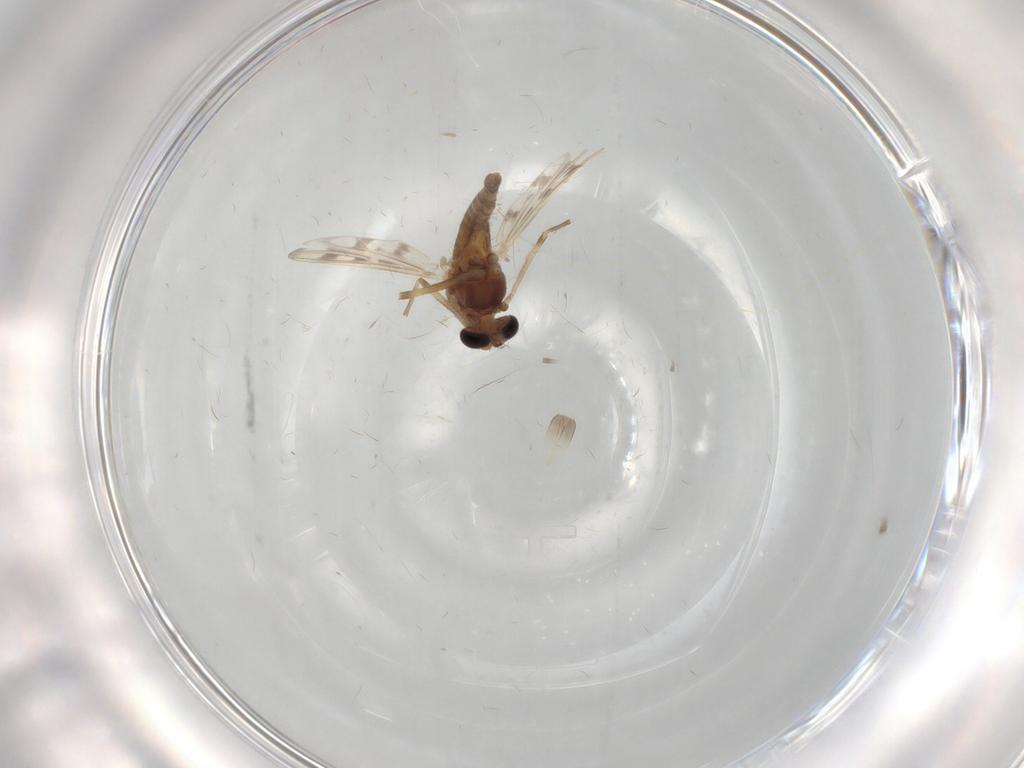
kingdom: Animalia
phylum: Arthropoda
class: Insecta
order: Diptera
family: Chironomidae
